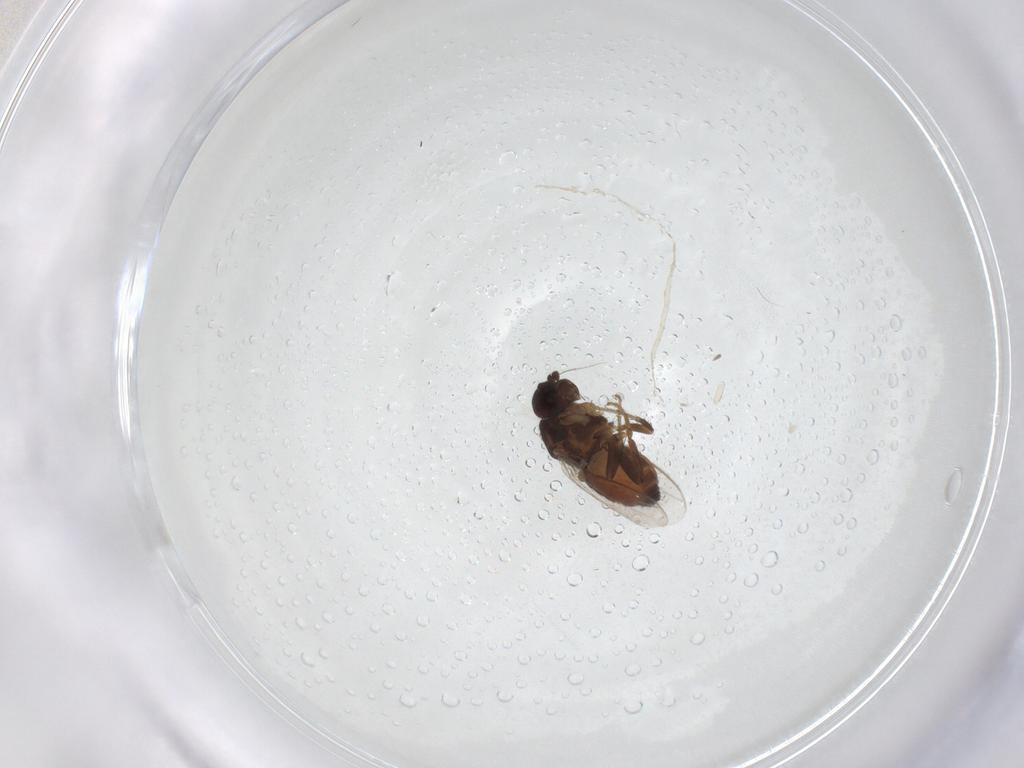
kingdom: Animalia
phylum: Arthropoda
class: Insecta
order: Diptera
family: Sphaeroceridae
